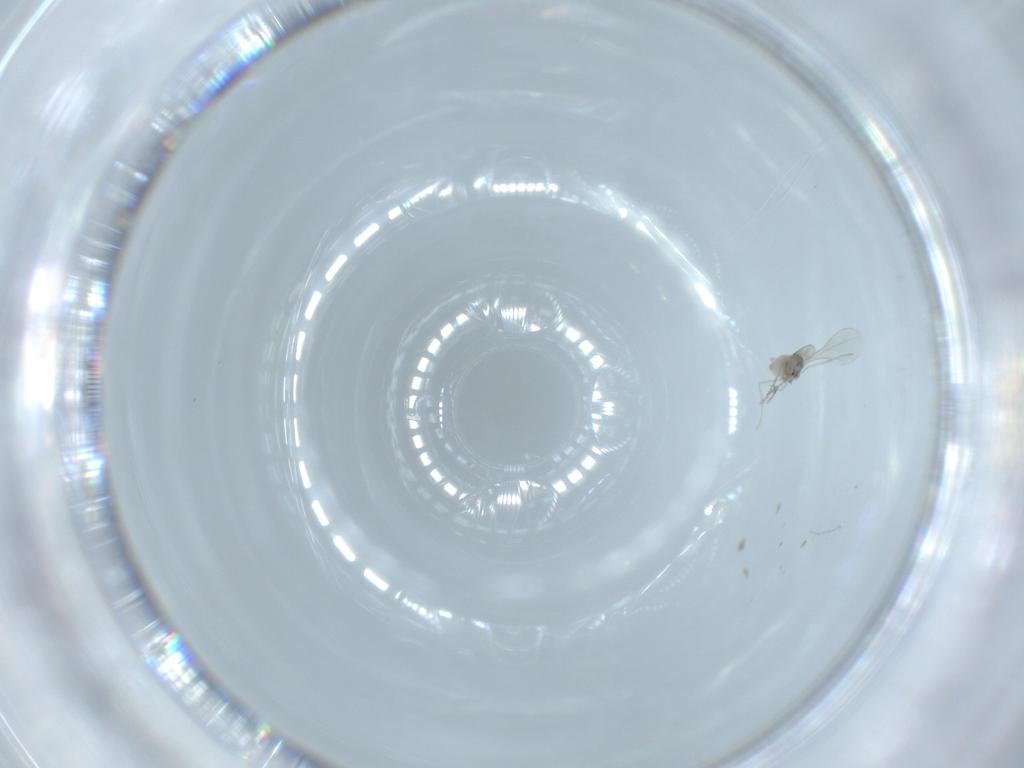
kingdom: Animalia
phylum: Arthropoda
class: Insecta
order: Diptera
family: Cecidomyiidae
